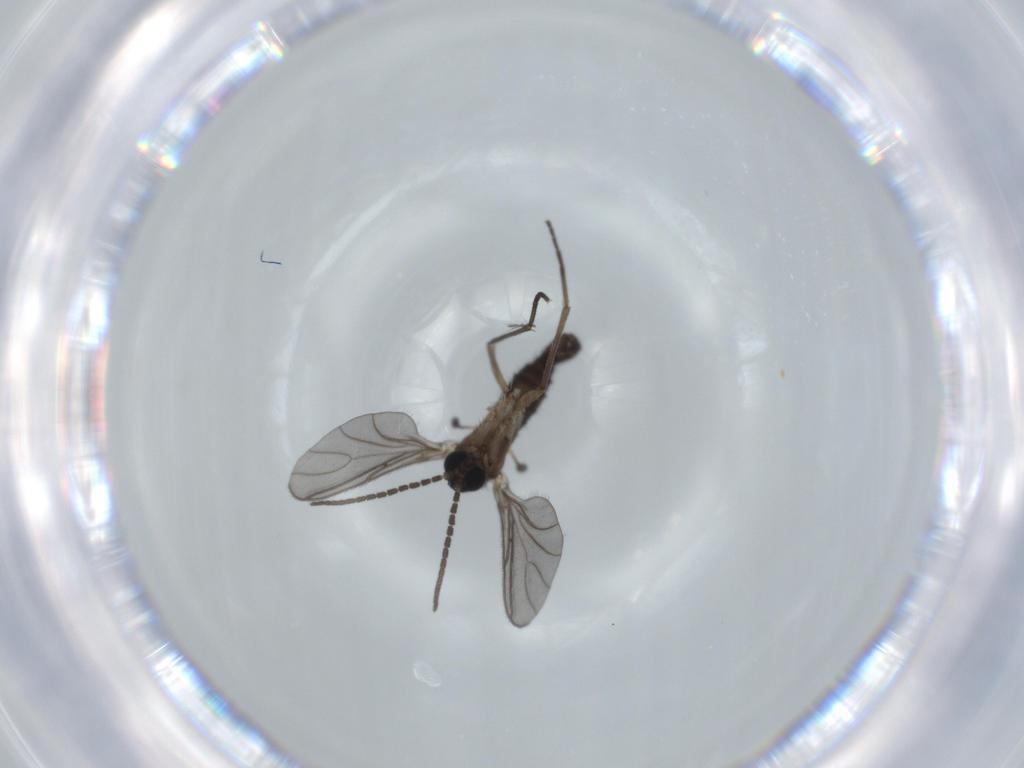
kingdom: Animalia
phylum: Arthropoda
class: Insecta
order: Diptera
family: Sciaridae
